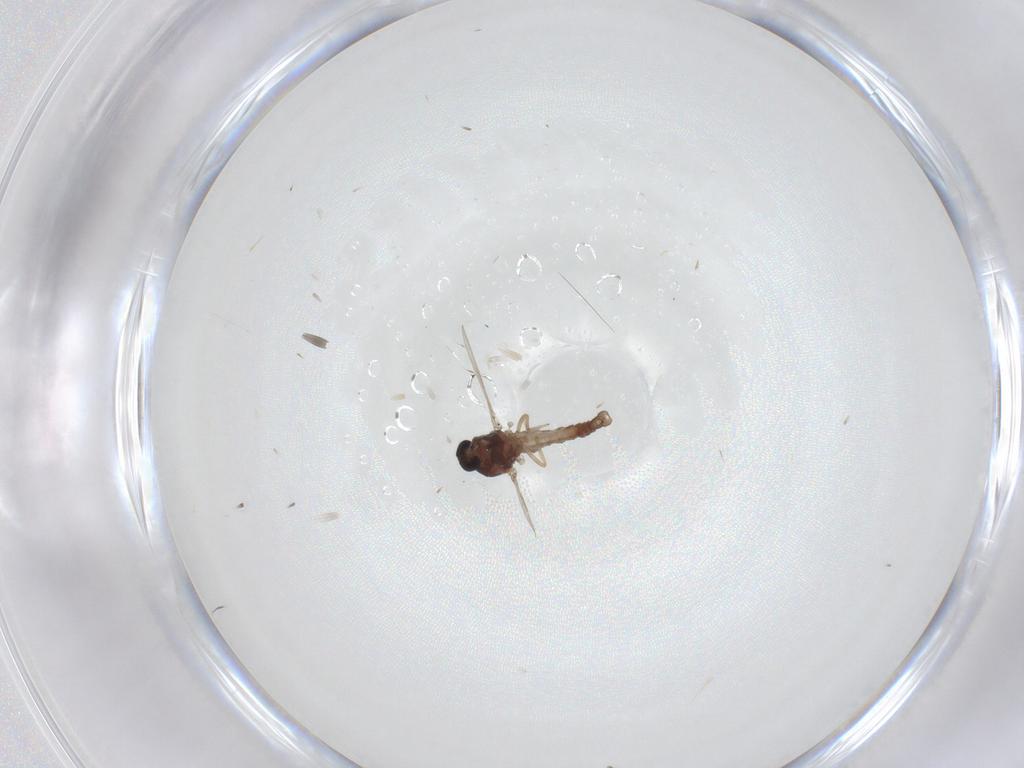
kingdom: Animalia
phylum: Arthropoda
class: Insecta
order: Diptera
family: Ceratopogonidae
